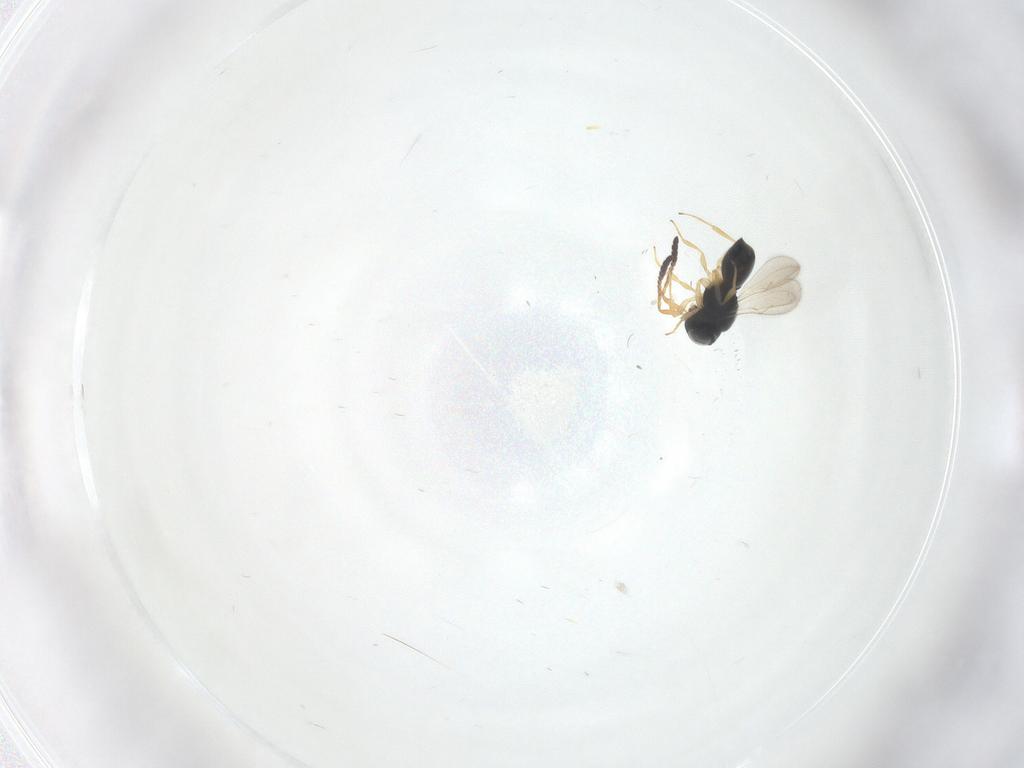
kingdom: Animalia
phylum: Arthropoda
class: Insecta
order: Hymenoptera
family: Scelionidae
